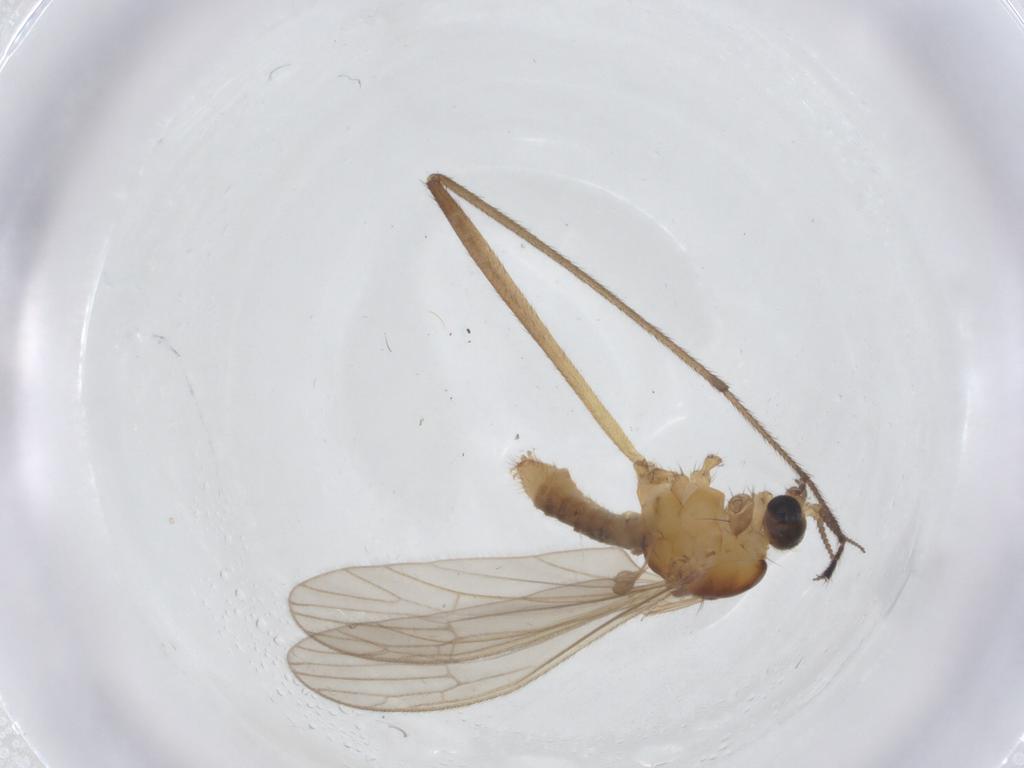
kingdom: Animalia
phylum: Arthropoda
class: Insecta
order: Diptera
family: Limoniidae
